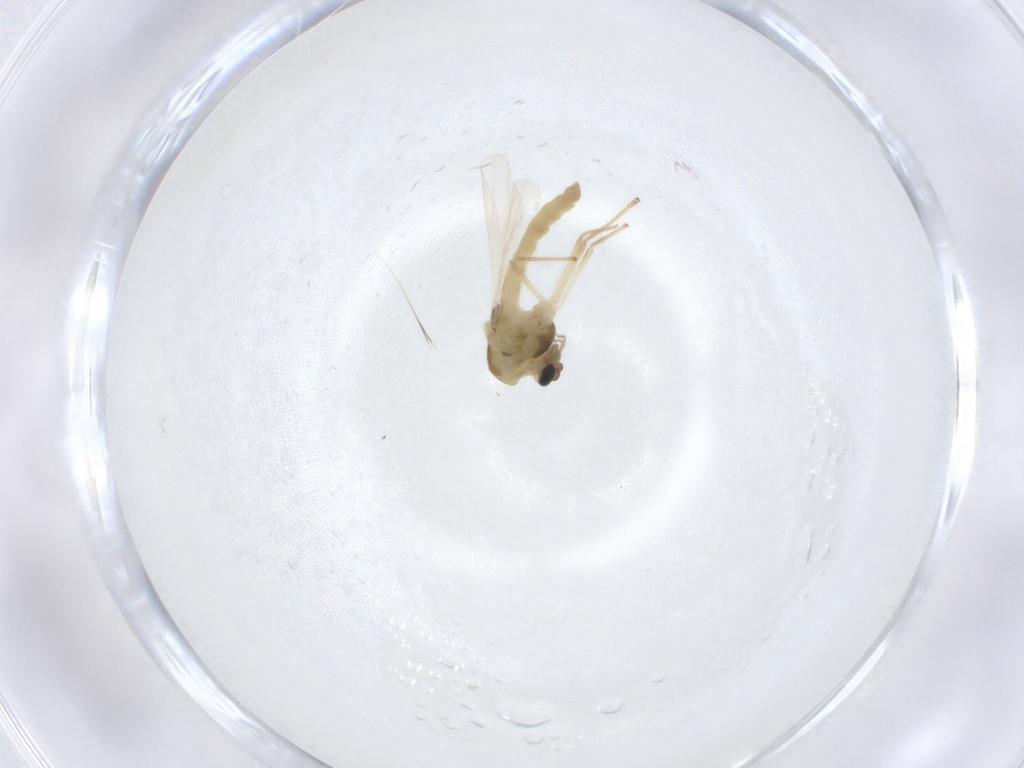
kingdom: Animalia
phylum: Arthropoda
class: Insecta
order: Diptera
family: Chironomidae
